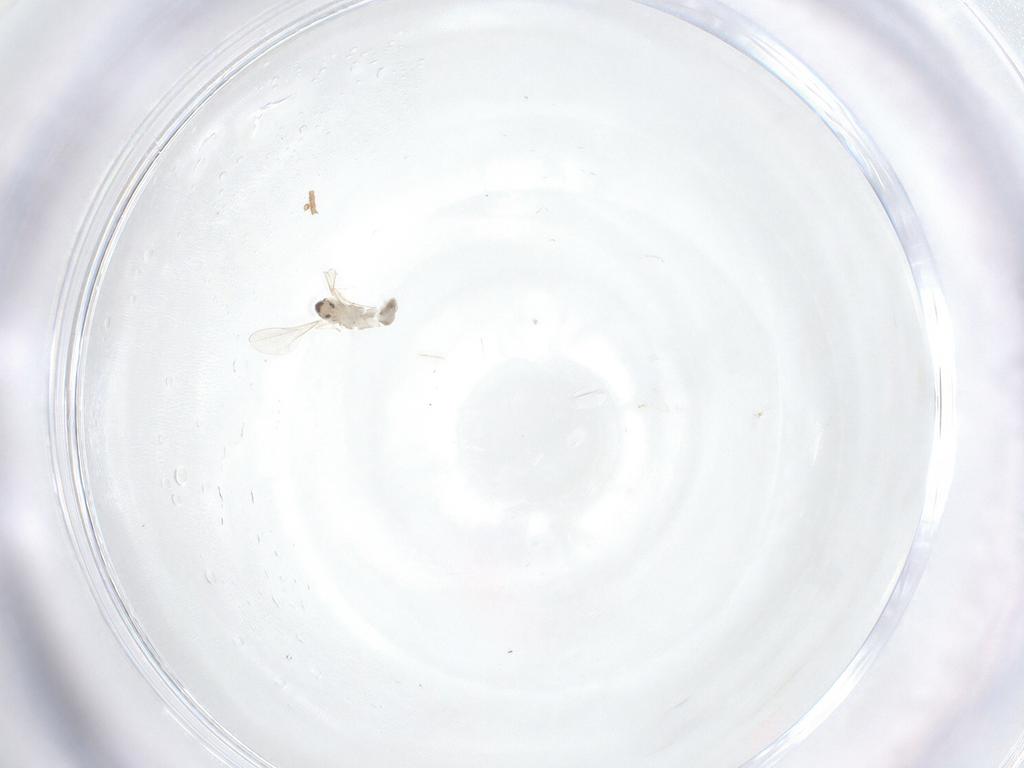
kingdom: Animalia
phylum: Arthropoda
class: Insecta
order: Diptera
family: Cecidomyiidae
